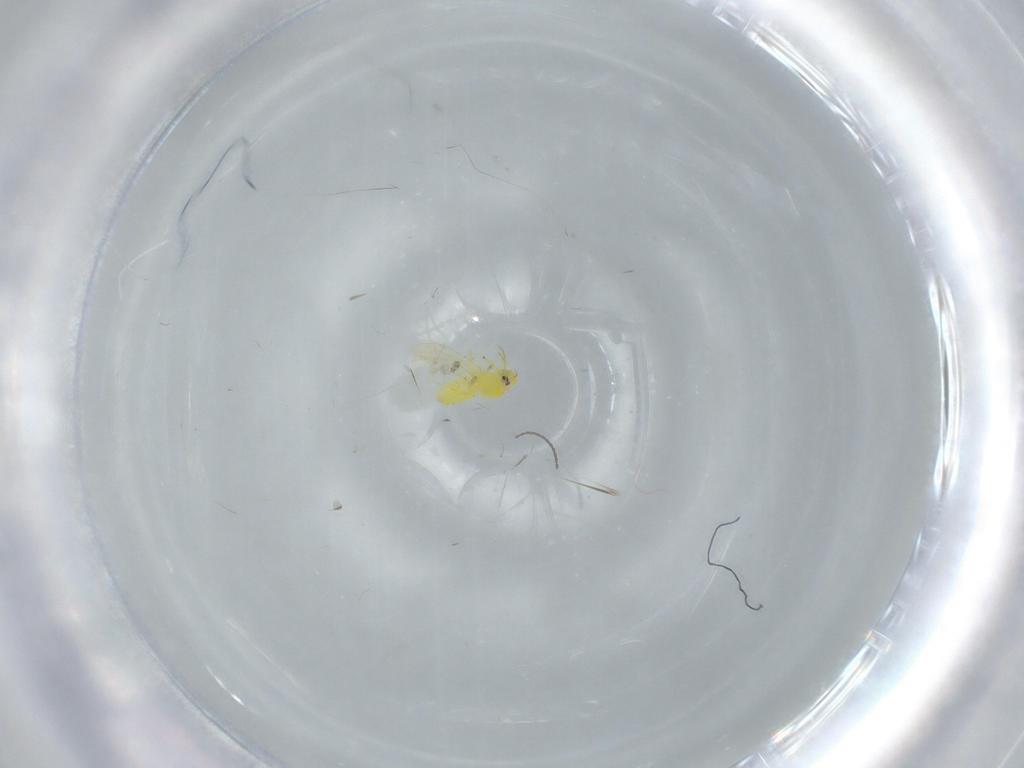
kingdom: Animalia
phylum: Arthropoda
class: Insecta
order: Hemiptera
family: Aleyrodidae
